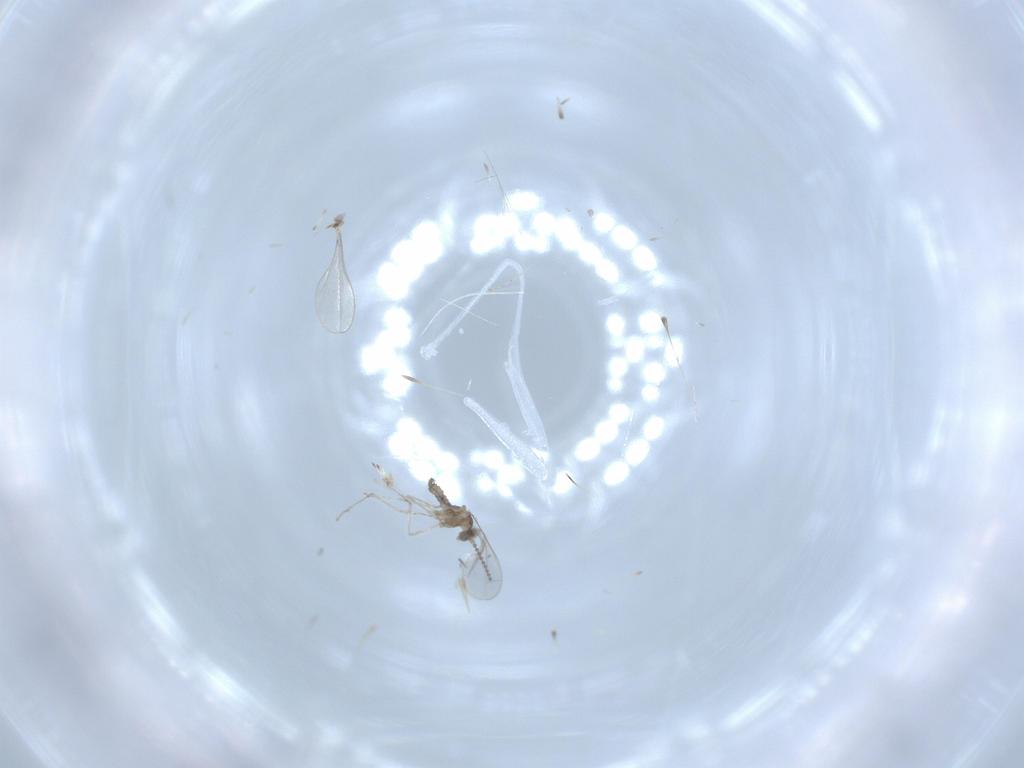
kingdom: Animalia
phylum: Arthropoda
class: Insecta
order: Diptera
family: Cecidomyiidae
